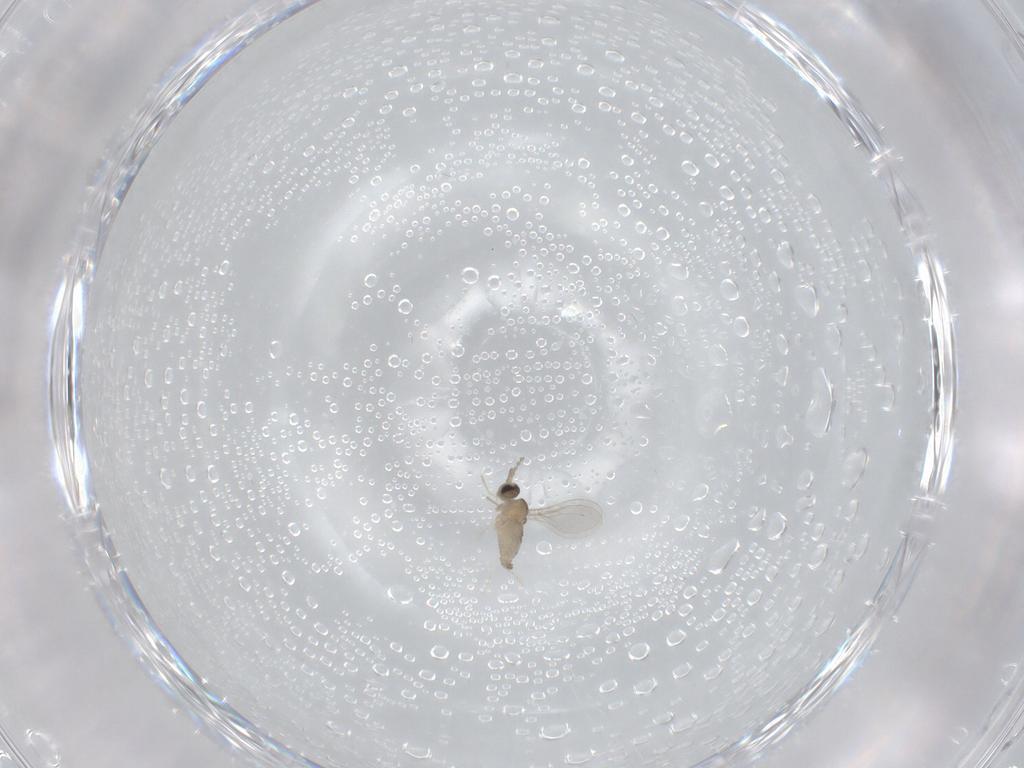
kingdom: Animalia
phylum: Arthropoda
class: Insecta
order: Diptera
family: Cecidomyiidae
